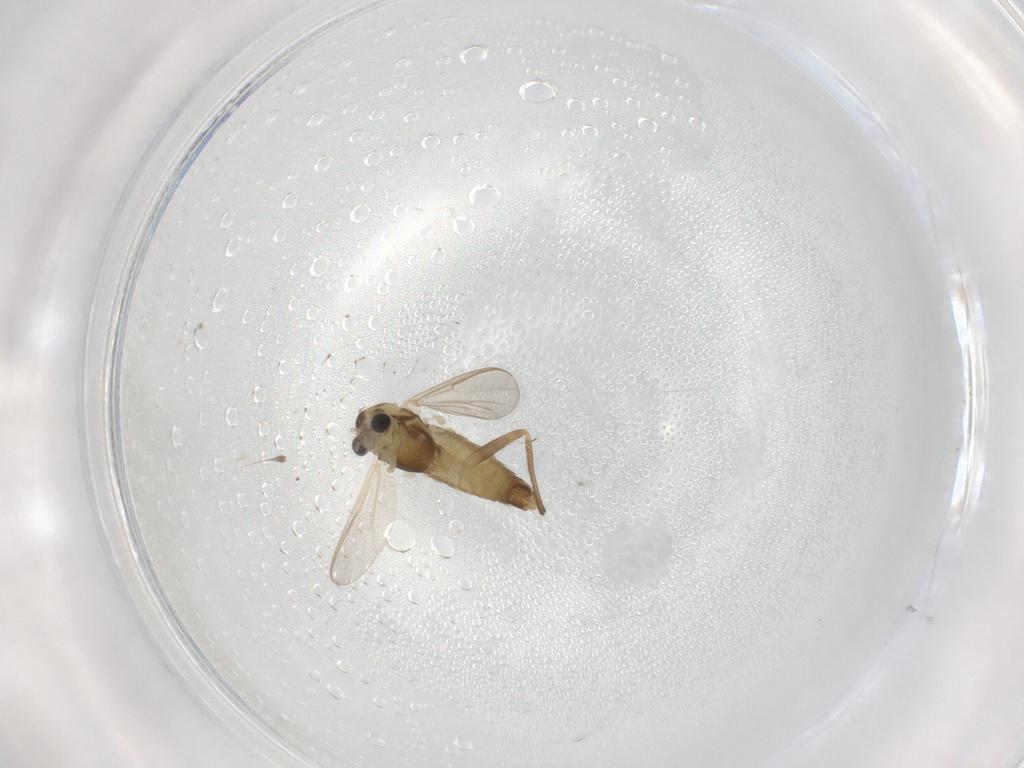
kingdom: Animalia
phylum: Arthropoda
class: Insecta
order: Diptera
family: Chironomidae
